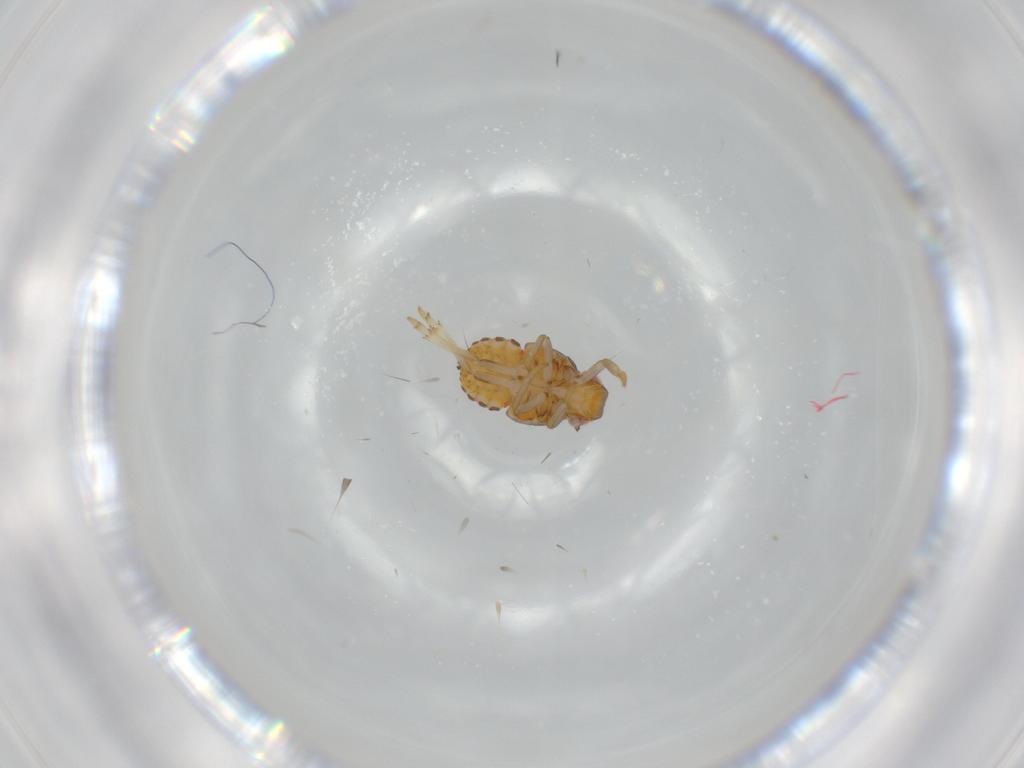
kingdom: Animalia
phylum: Arthropoda
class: Insecta
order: Hemiptera
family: Issidae
